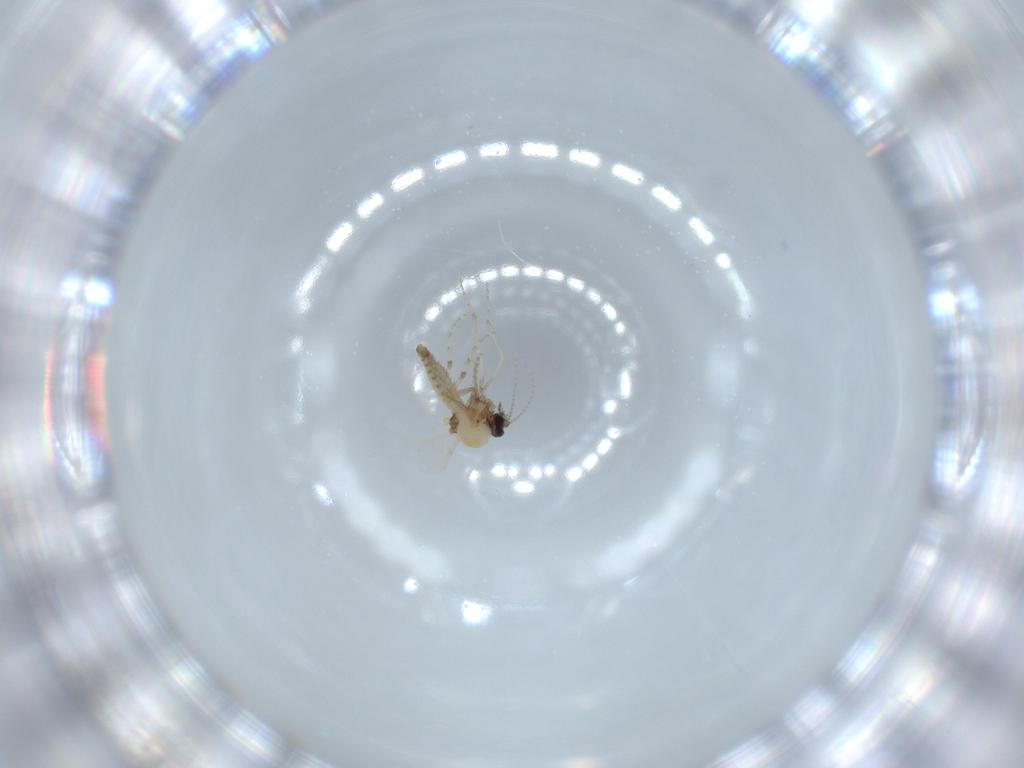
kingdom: Animalia
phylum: Arthropoda
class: Insecta
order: Diptera
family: Ceratopogonidae
